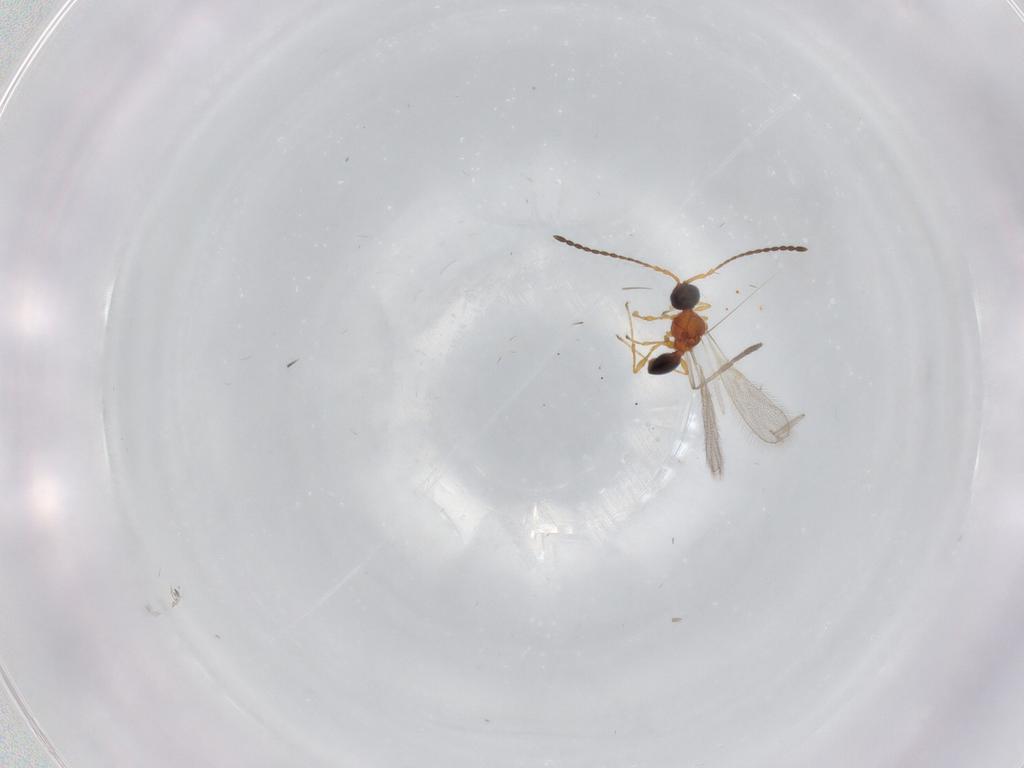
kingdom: Animalia
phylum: Arthropoda
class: Insecta
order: Hymenoptera
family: Diapriidae
